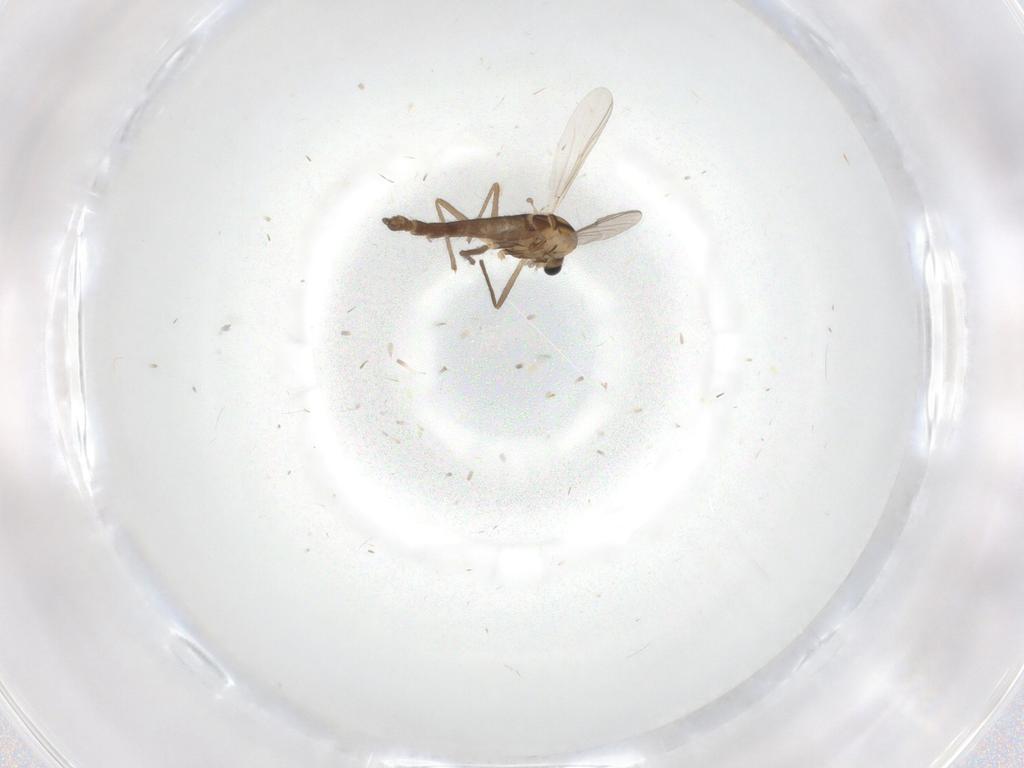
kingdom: Animalia
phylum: Arthropoda
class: Insecta
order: Diptera
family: Chironomidae
